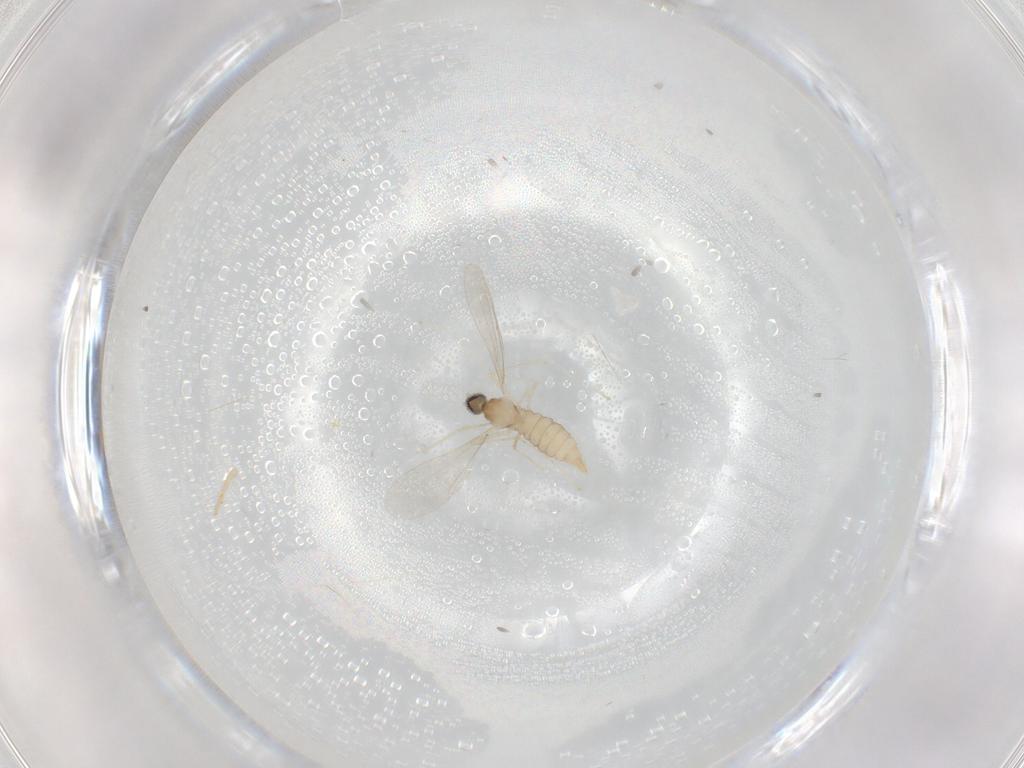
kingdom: Animalia
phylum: Arthropoda
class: Insecta
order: Diptera
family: Cecidomyiidae
